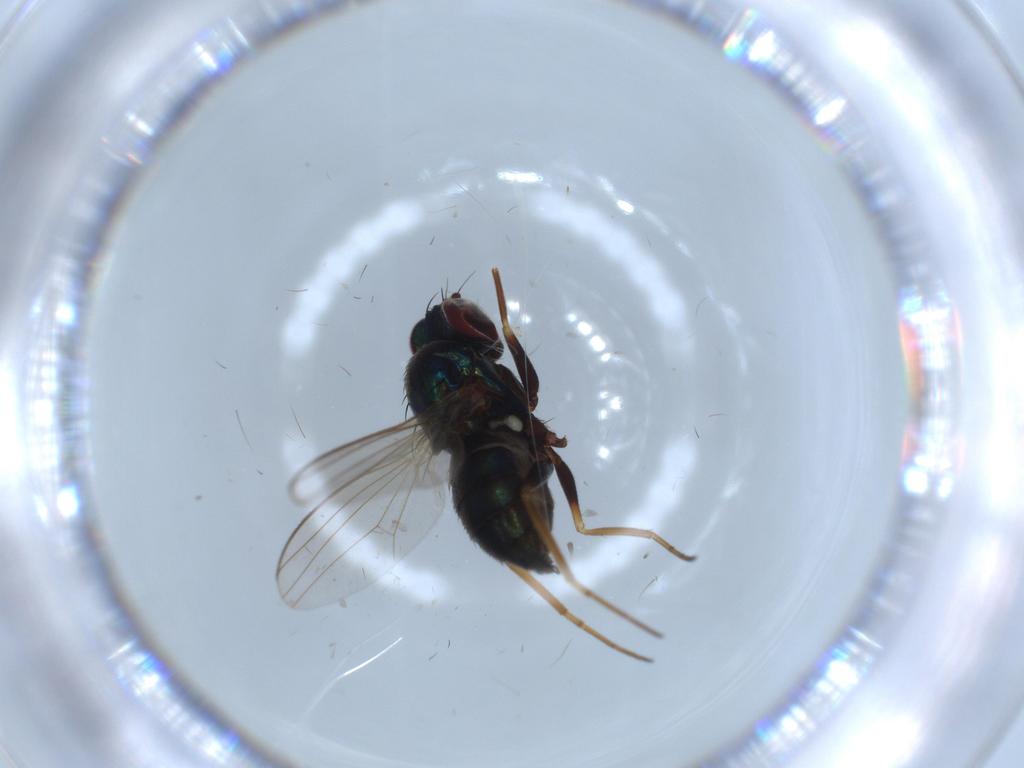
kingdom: Animalia
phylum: Arthropoda
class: Insecta
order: Diptera
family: Dolichopodidae
